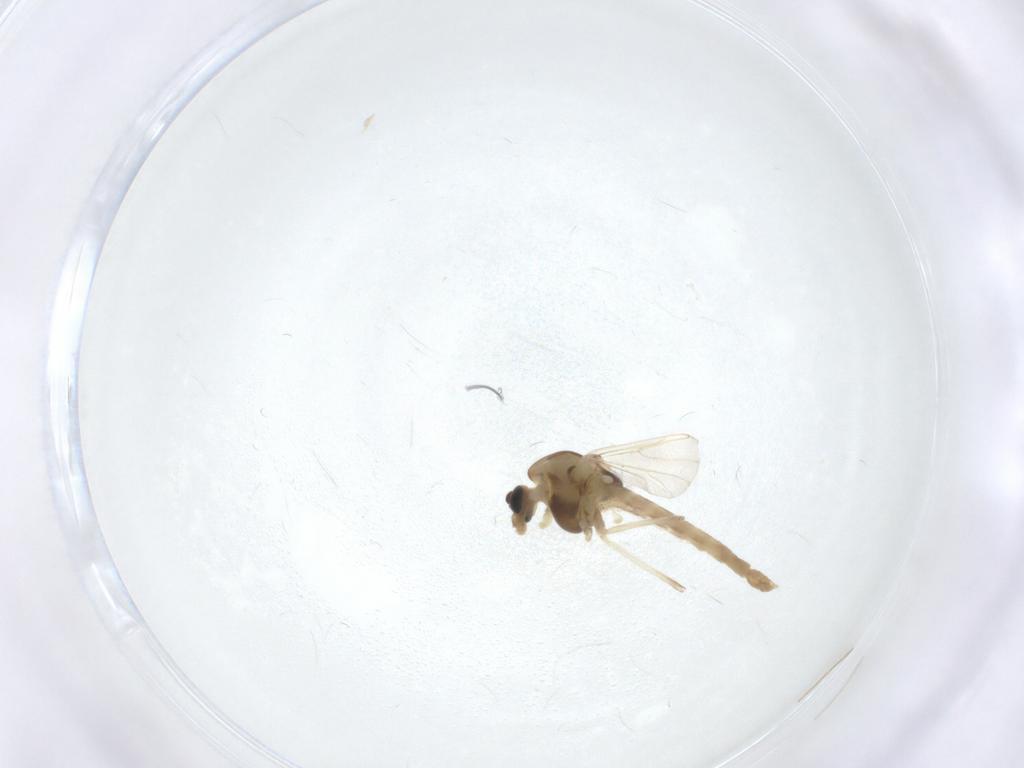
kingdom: Animalia
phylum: Arthropoda
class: Insecta
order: Diptera
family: Chironomidae
